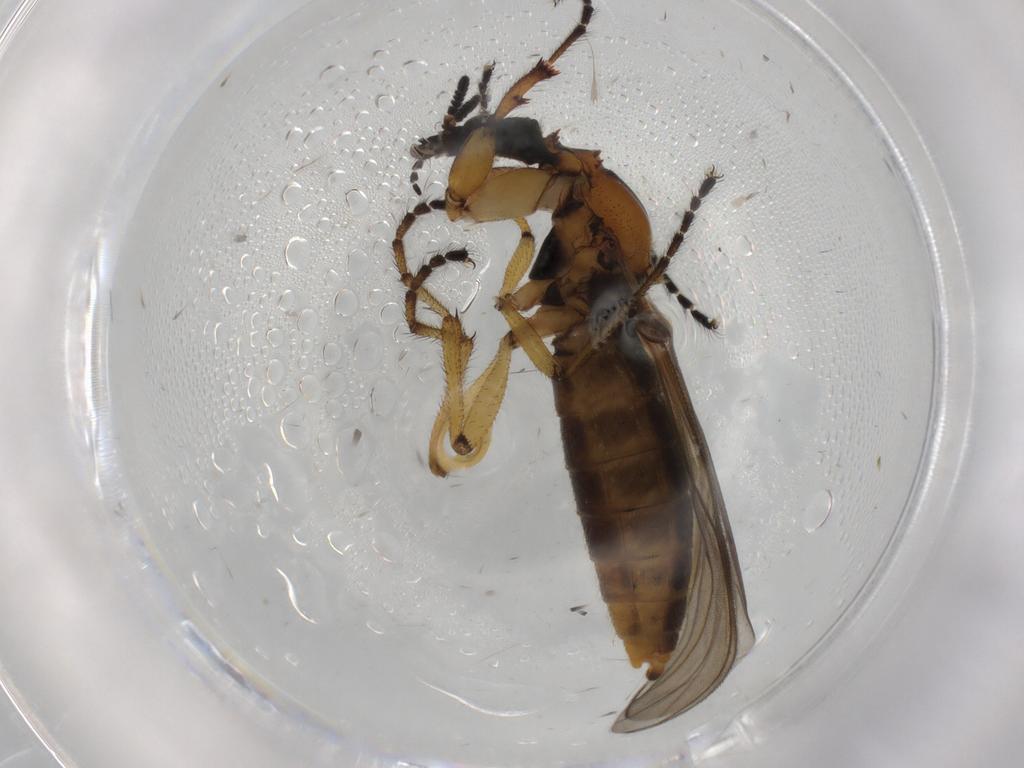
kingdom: Animalia
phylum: Arthropoda
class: Insecta
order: Diptera
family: Bibionidae
